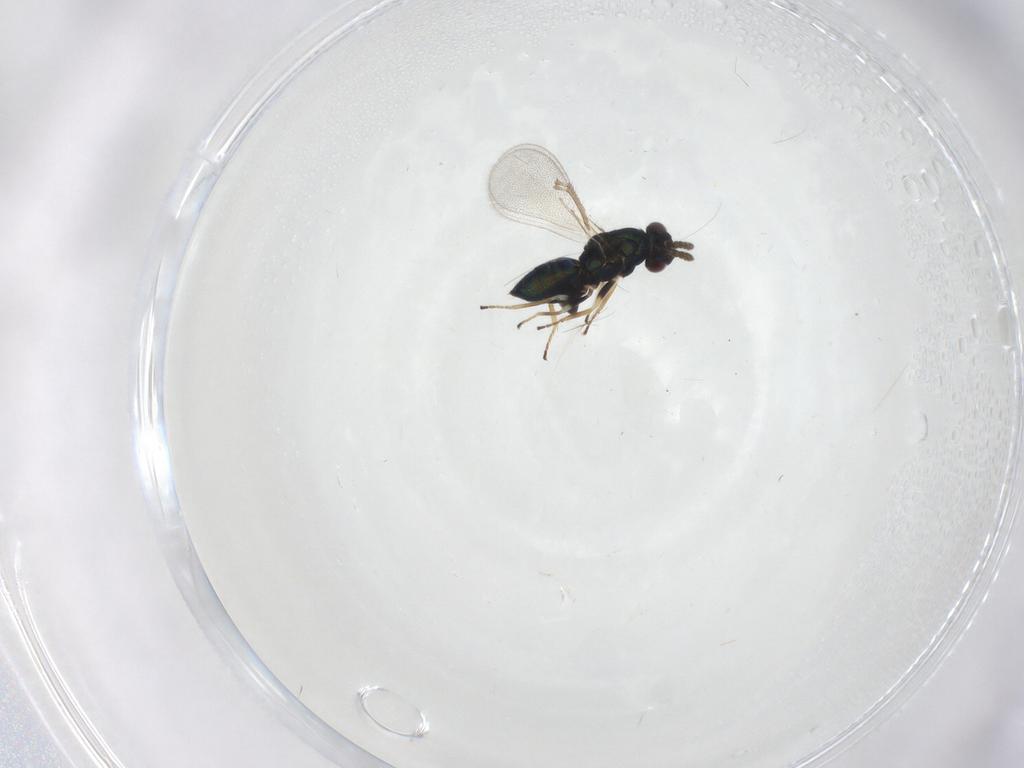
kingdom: Animalia
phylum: Arthropoda
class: Insecta
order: Hymenoptera
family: Eulophidae
